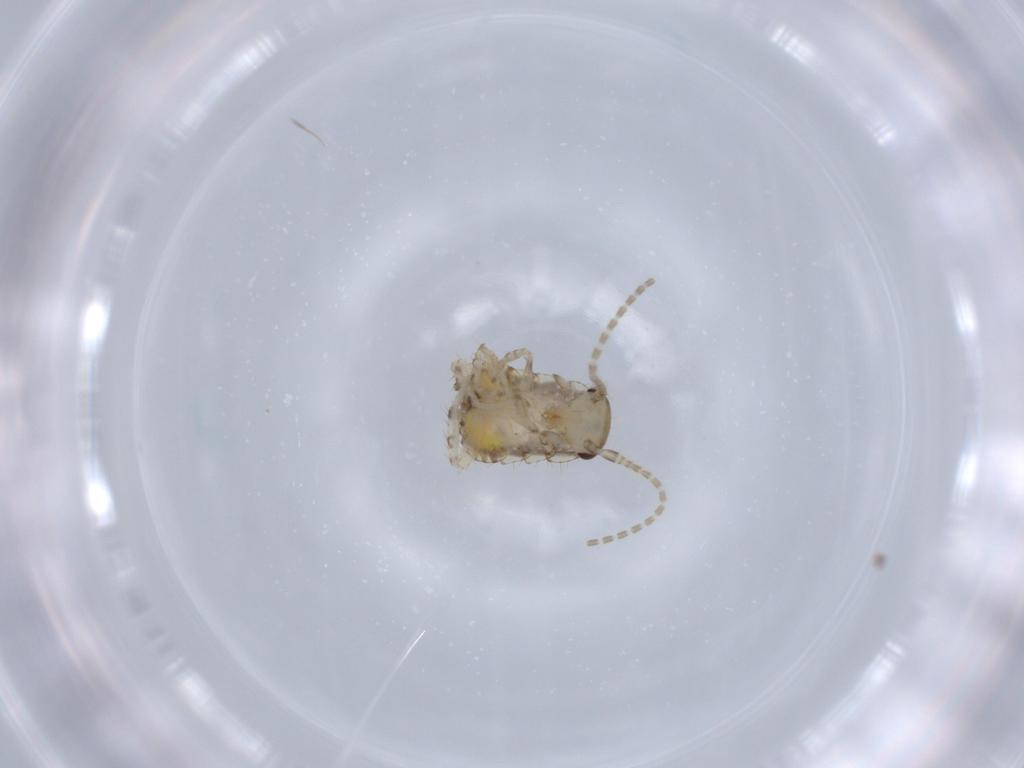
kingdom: Animalia
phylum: Arthropoda
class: Insecta
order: Blattodea
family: Ectobiidae
